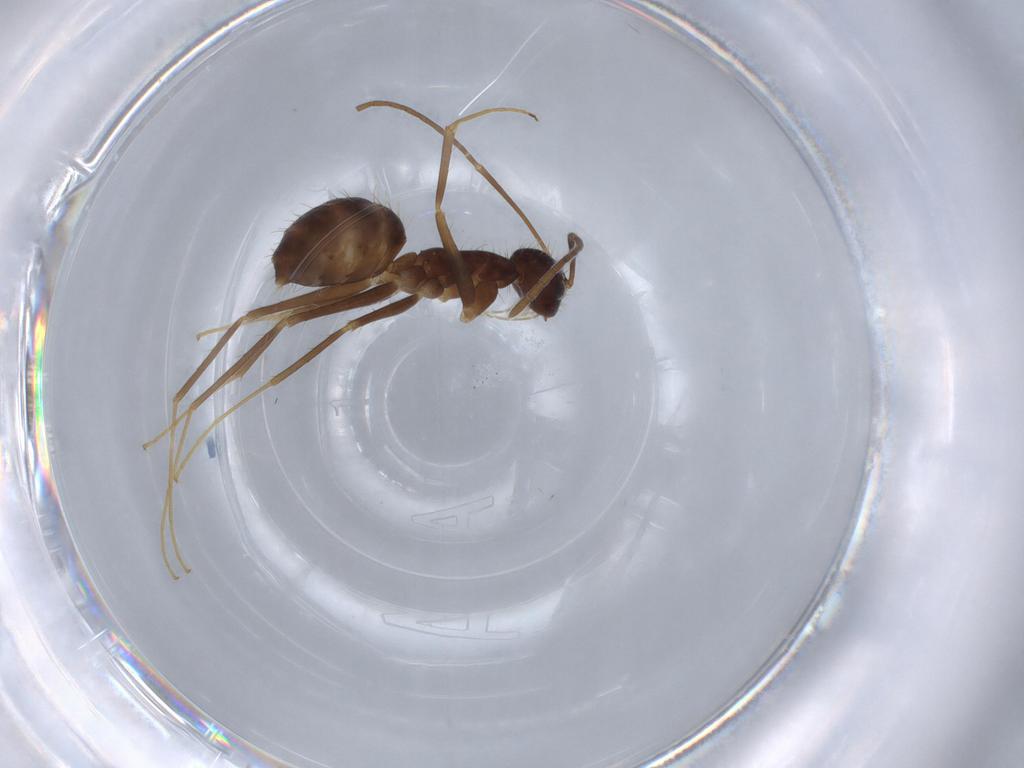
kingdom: Animalia
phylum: Arthropoda
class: Insecta
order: Hymenoptera
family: Formicidae
